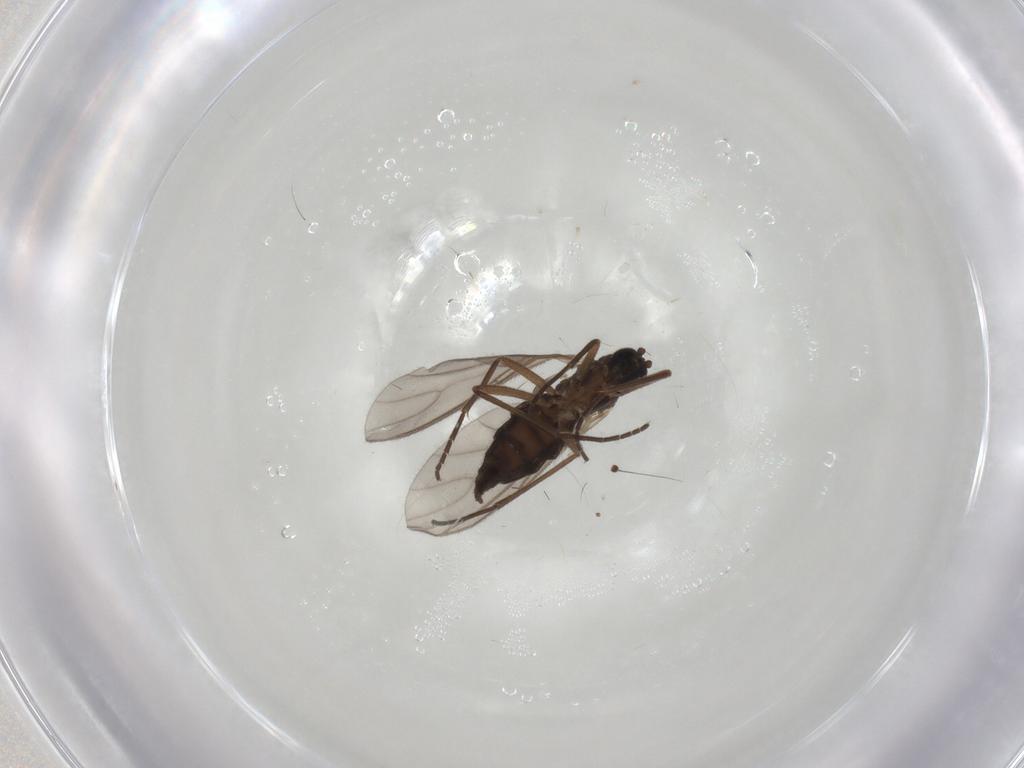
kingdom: Animalia
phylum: Arthropoda
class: Insecta
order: Diptera
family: Sciaridae
